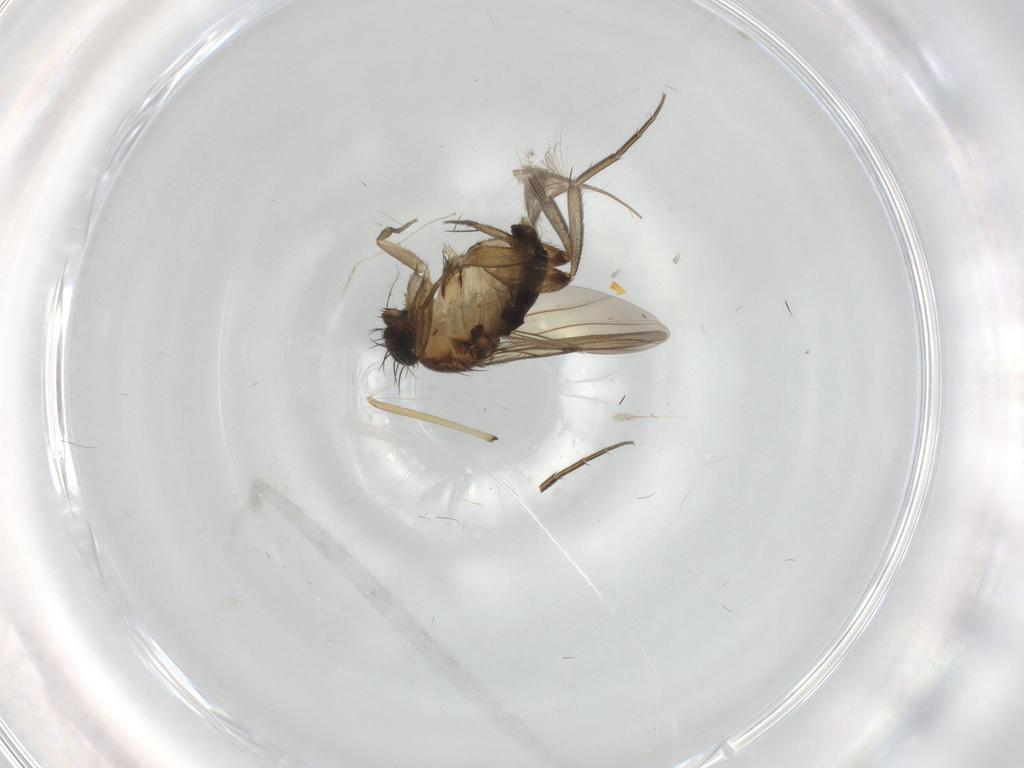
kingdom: Animalia
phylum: Arthropoda
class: Insecta
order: Diptera
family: Phoridae
